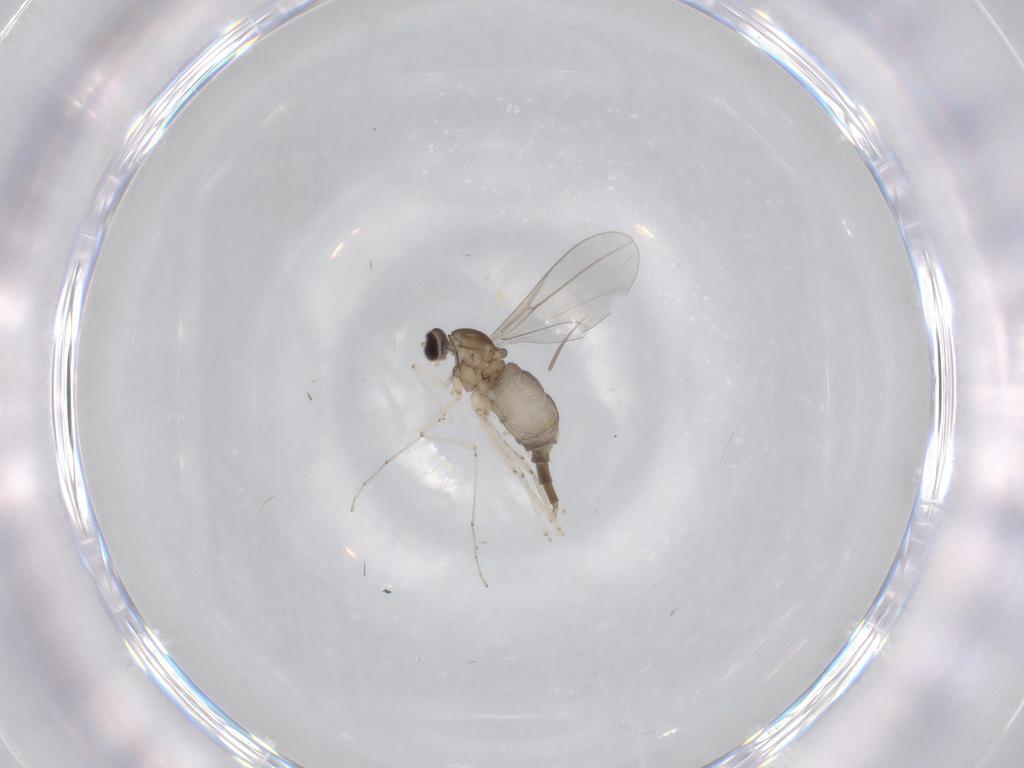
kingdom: Animalia
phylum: Arthropoda
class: Insecta
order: Diptera
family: Cecidomyiidae
